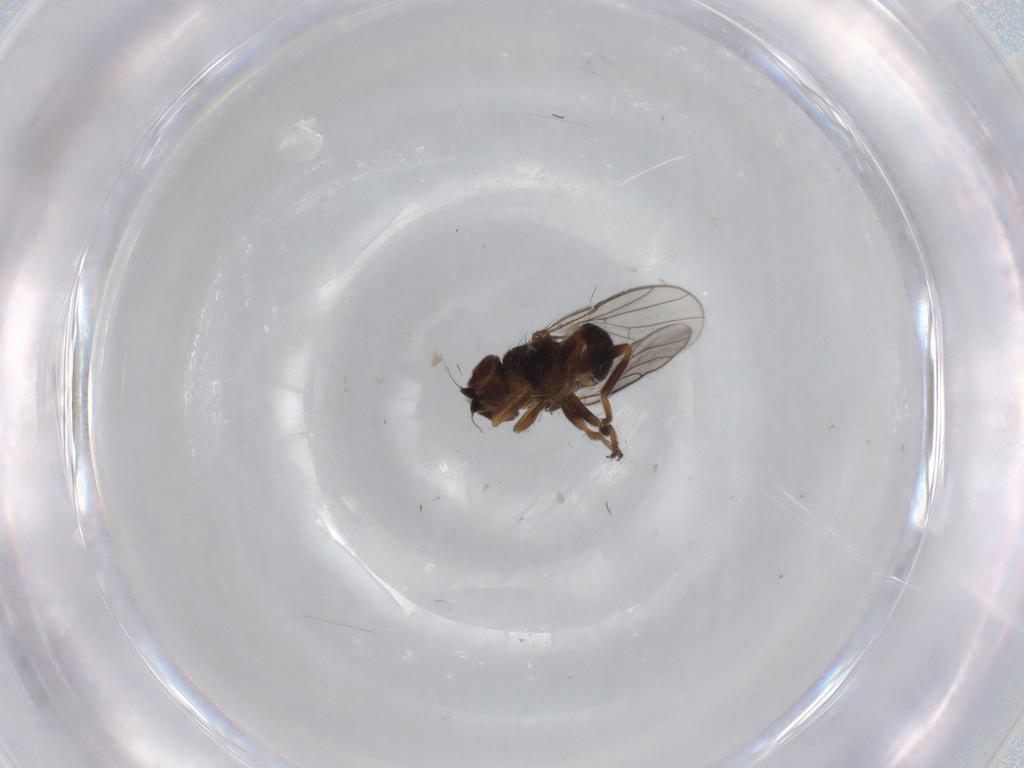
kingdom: Animalia
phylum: Arthropoda
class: Insecta
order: Diptera
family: Chloropidae
